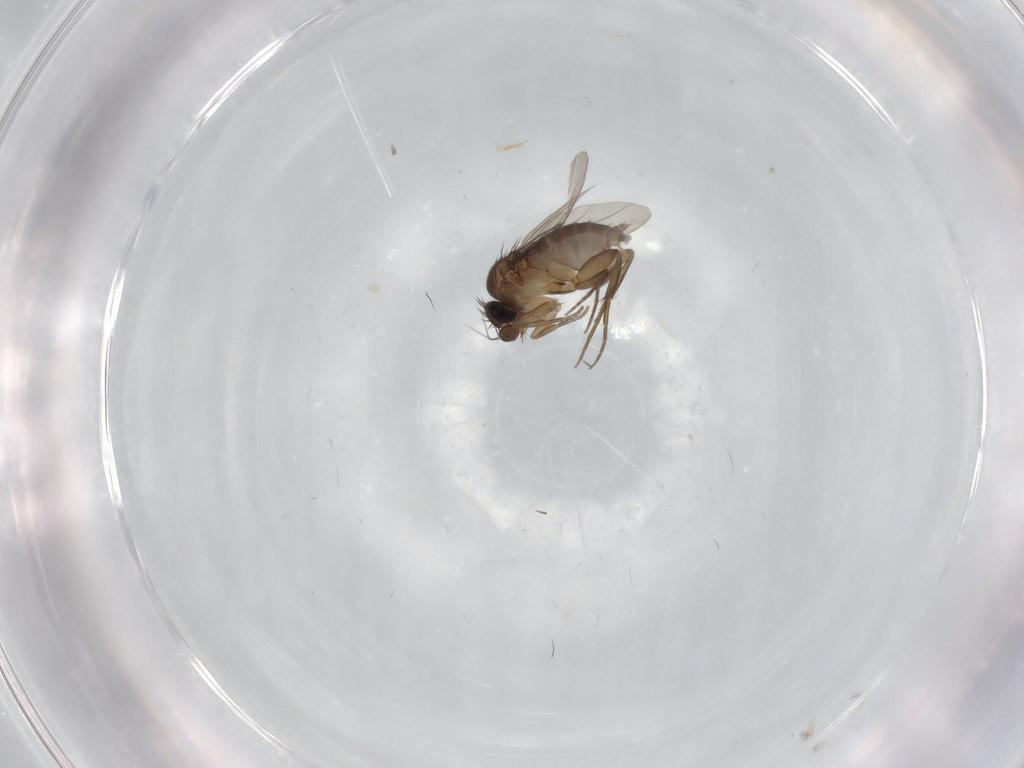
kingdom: Animalia
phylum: Arthropoda
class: Insecta
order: Diptera
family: Phoridae
